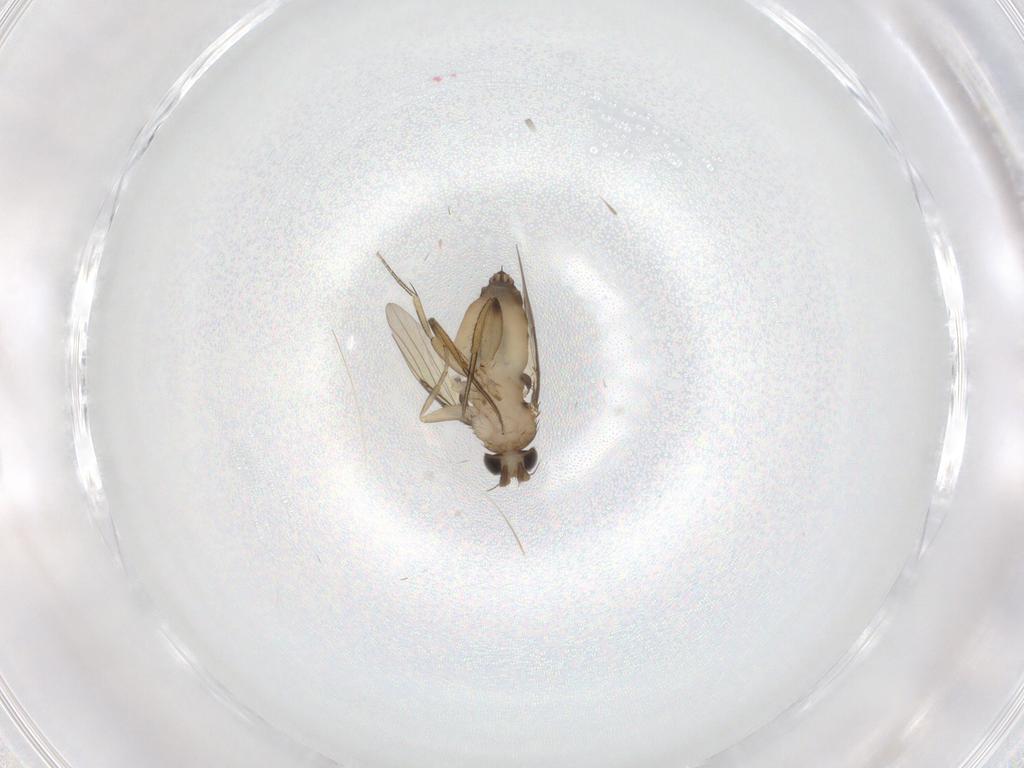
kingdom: Animalia
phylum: Arthropoda
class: Insecta
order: Diptera
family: Phoridae
